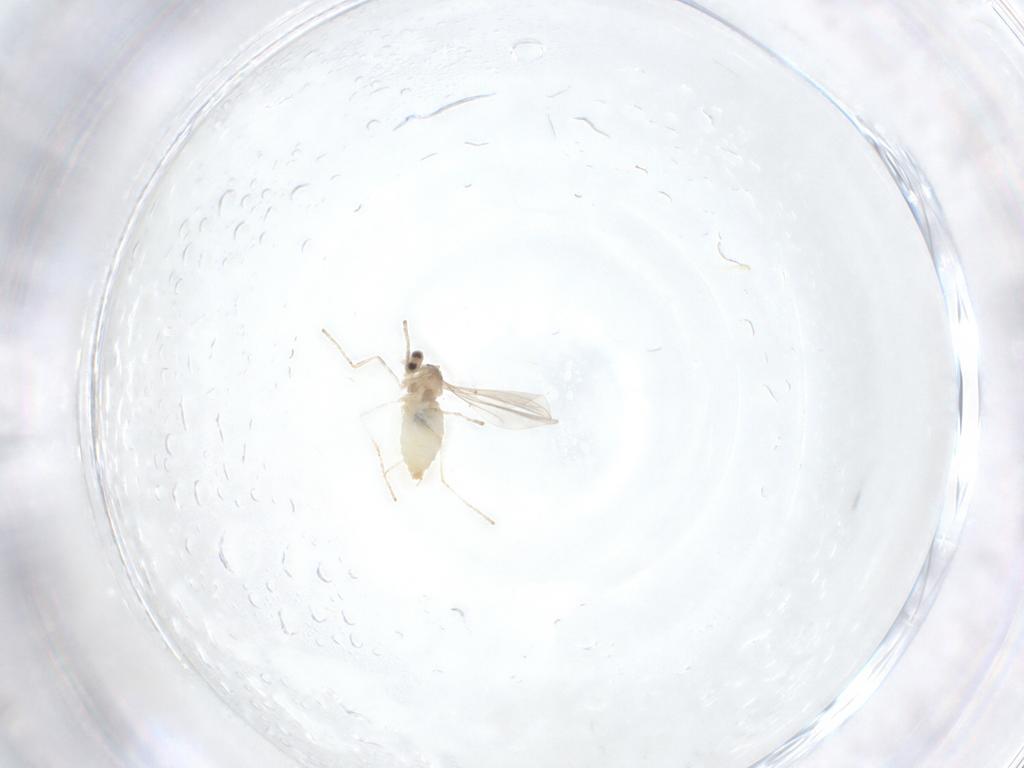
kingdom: Animalia
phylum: Arthropoda
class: Insecta
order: Diptera
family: Cecidomyiidae
